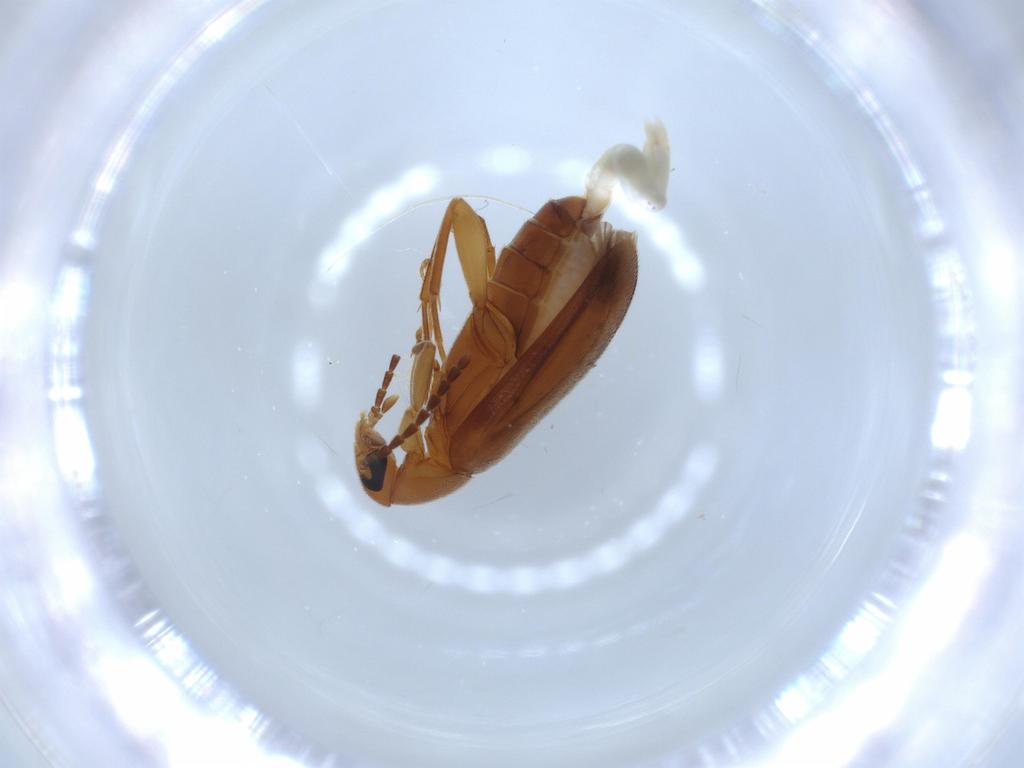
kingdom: Animalia
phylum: Arthropoda
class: Insecta
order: Coleoptera
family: Scraptiidae
